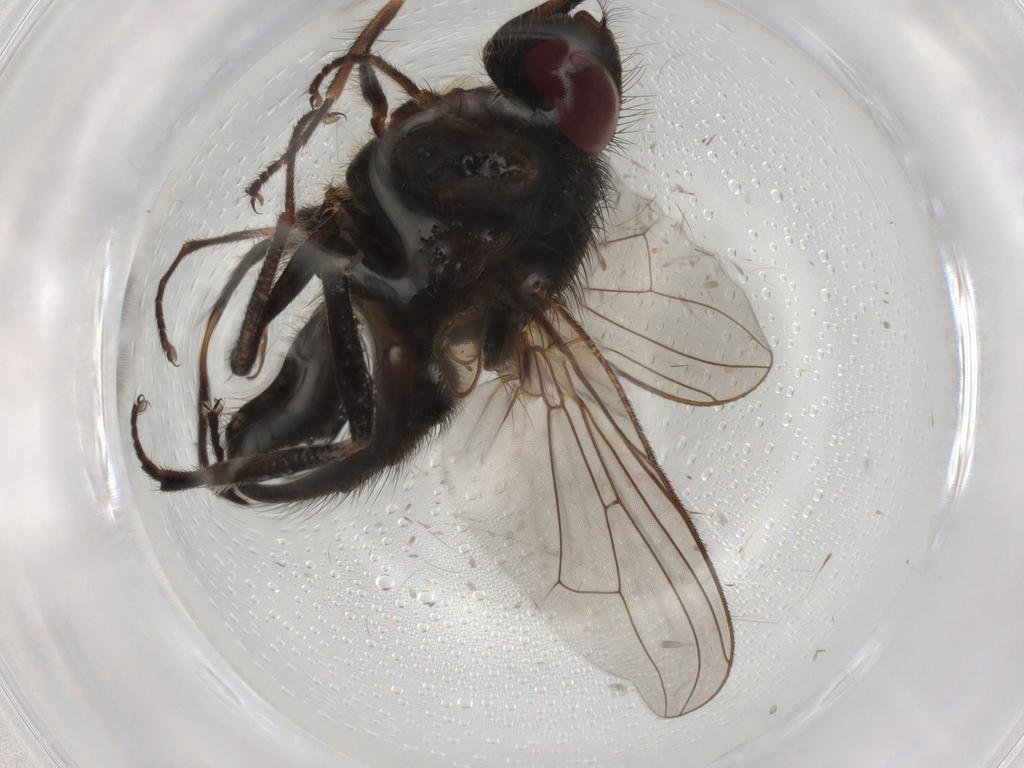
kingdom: Animalia
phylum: Arthropoda
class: Insecta
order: Diptera
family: Muscidae
